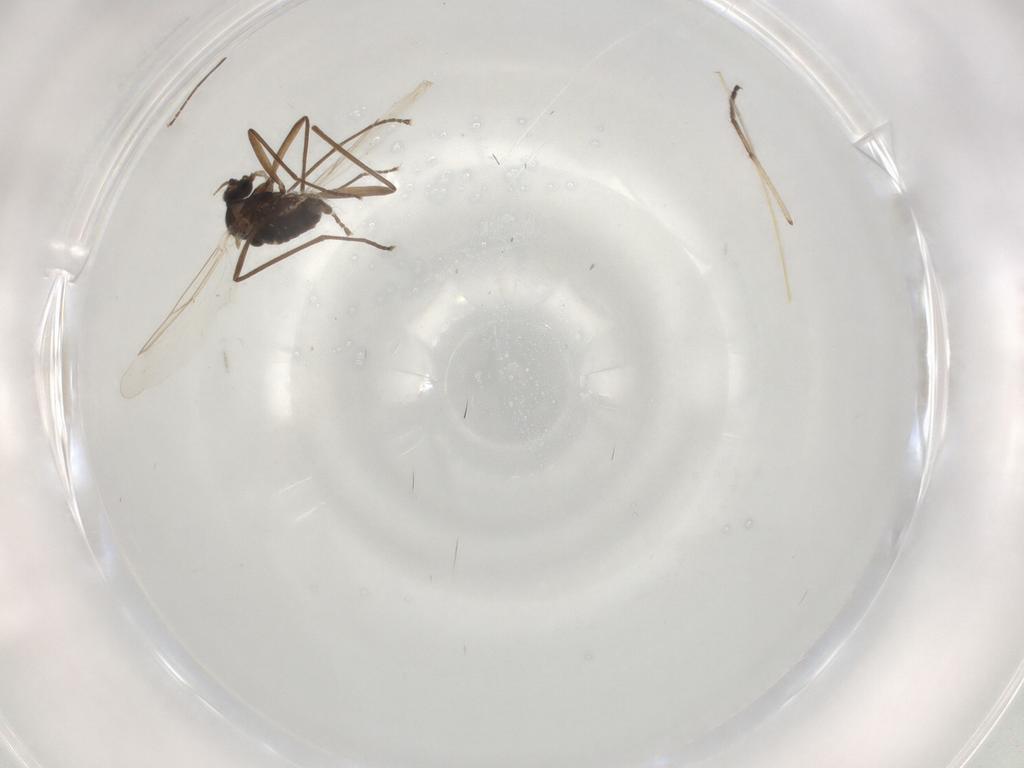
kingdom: Animalia
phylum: Arthropoda
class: Insecta
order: Diptera
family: Cecidomyiidae
